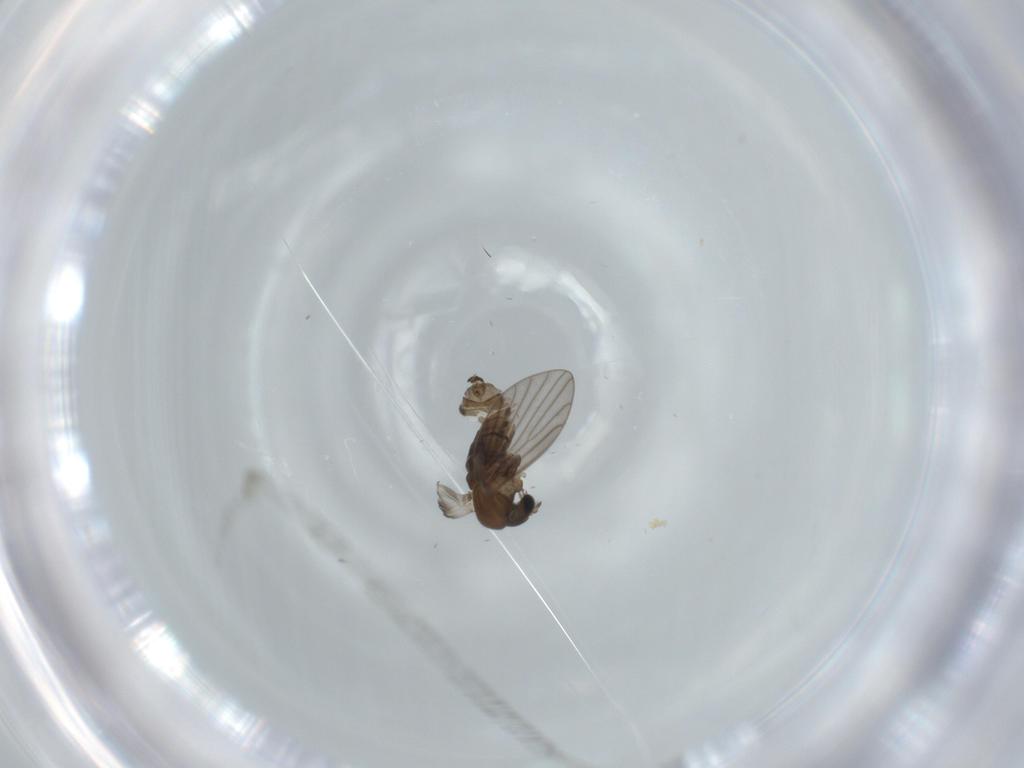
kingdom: Animalia
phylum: Arthropoda
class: Insecta
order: Diptera
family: Psychodidae
